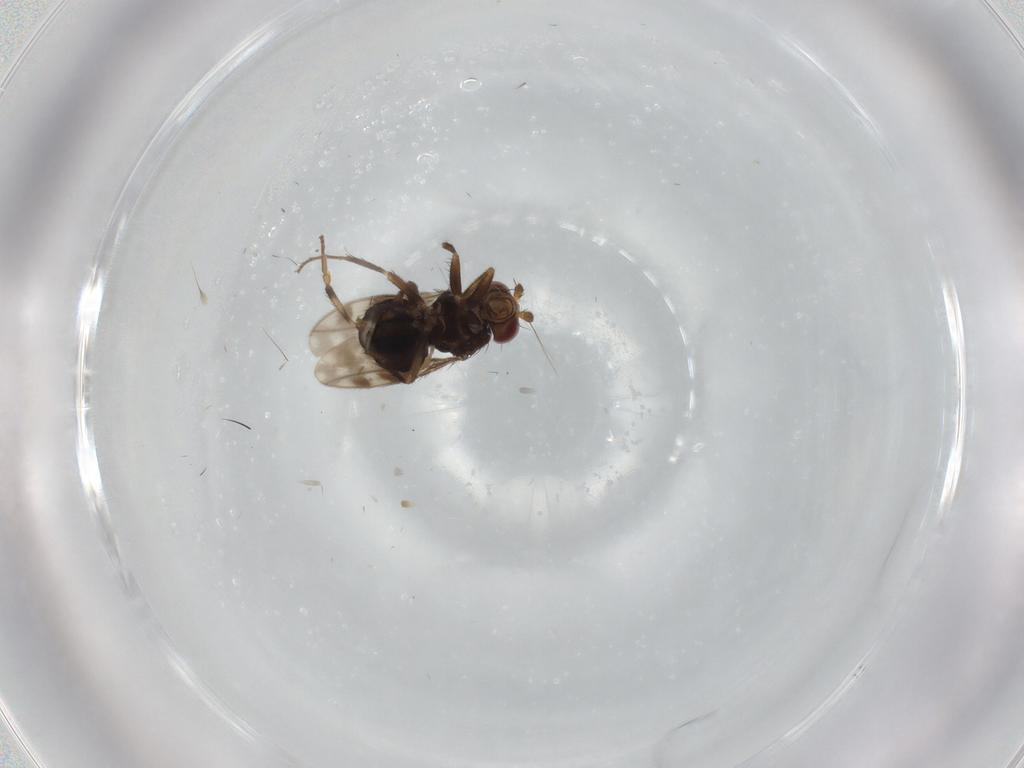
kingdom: Animalia
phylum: Arthropoda
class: Insecta
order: Diptera
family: Sphaeroceridae
